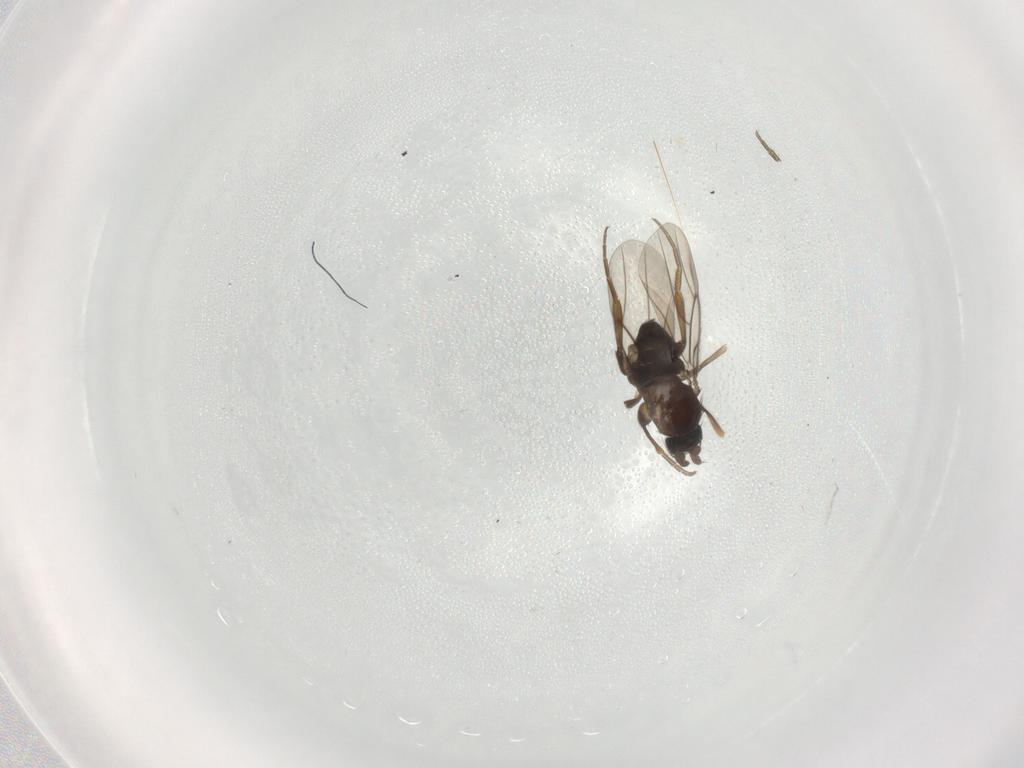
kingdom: Animalia
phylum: Arthropoda
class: Insecta
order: Diptera
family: Phoridae
